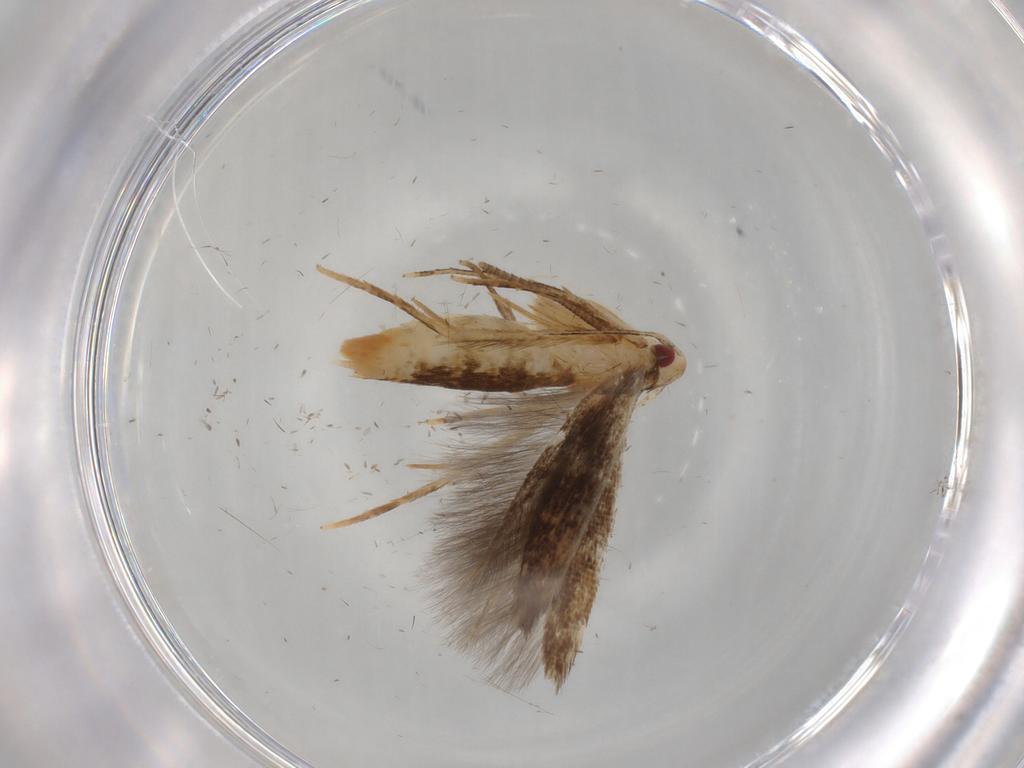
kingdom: Animalia
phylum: Arthropoda
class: Insecta
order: Lepidoptera
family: Gelechiidae
